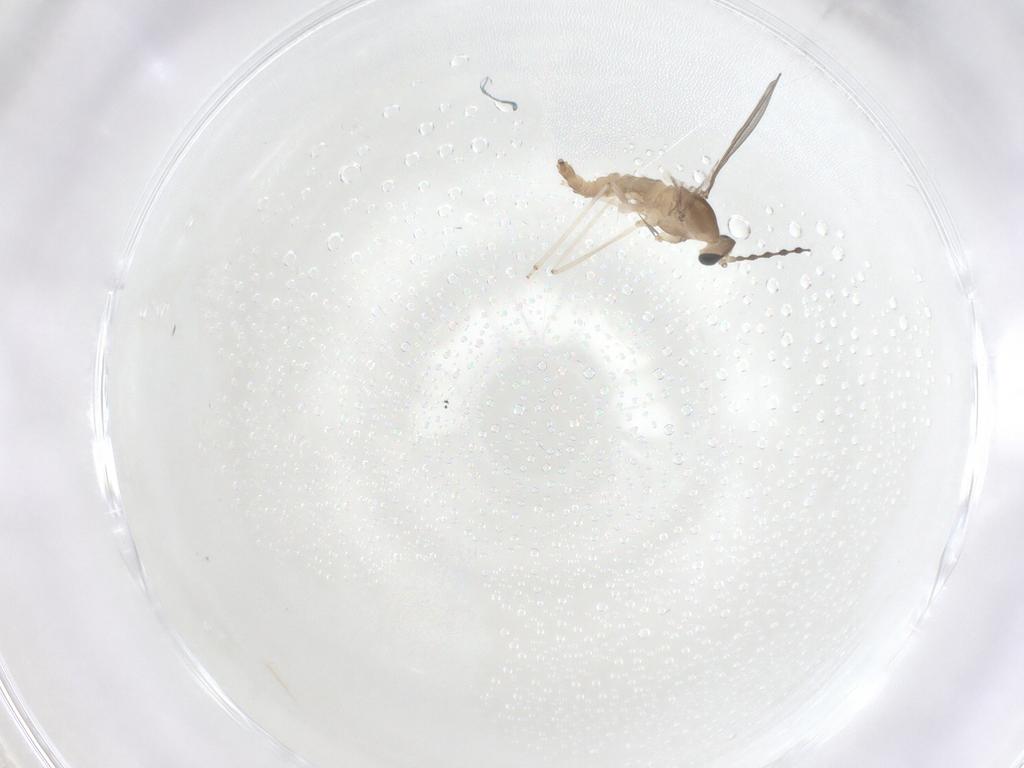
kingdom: Animalia
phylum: Arthropoda
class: Insecta
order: Diptera
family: Cecidomyiidae
